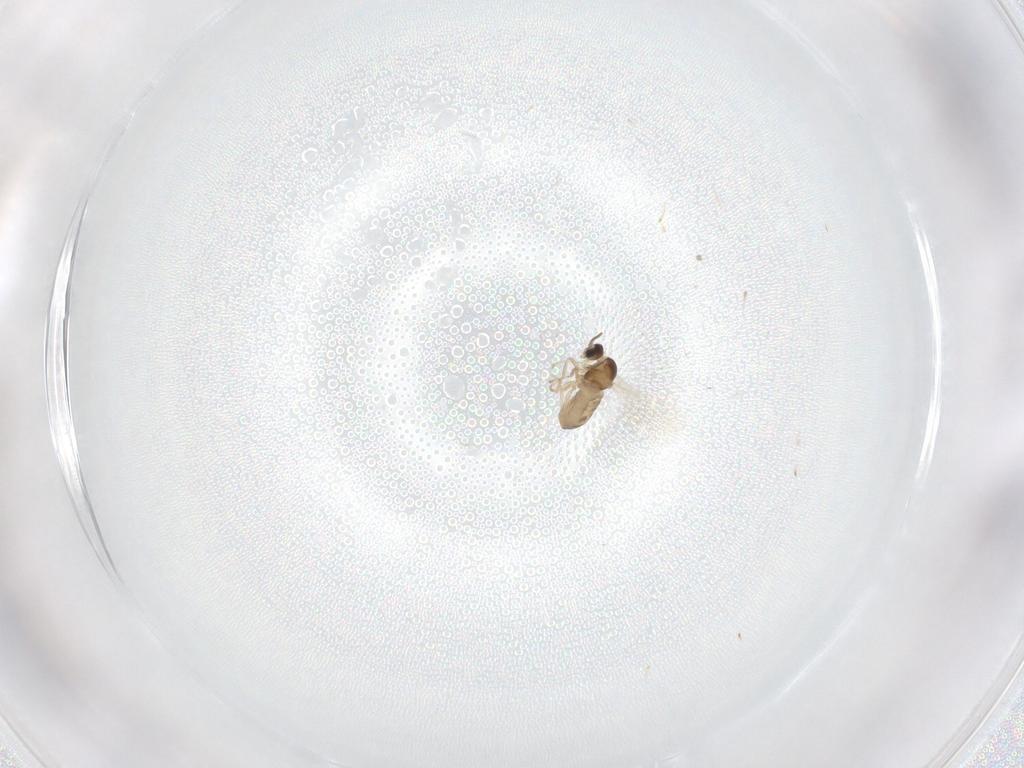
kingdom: Animalia
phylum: Arthropoda
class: Insecta
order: Diptera
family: Cecidomyiidae
